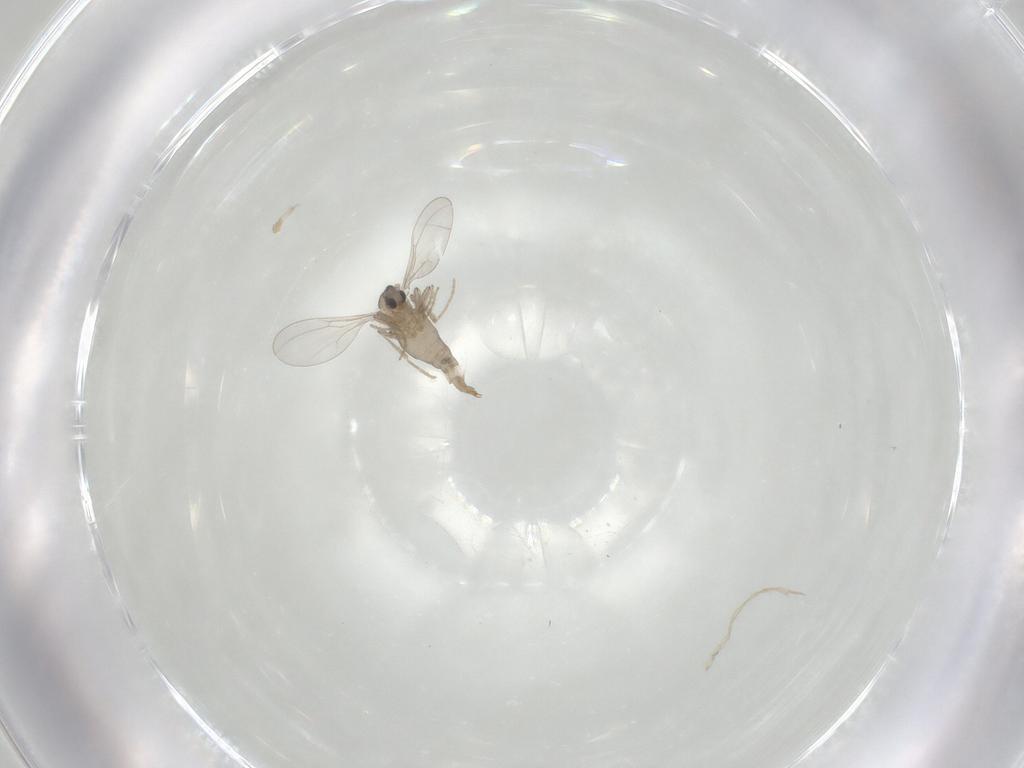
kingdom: Animalia
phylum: Arthropoda
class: Insecta
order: Diptera
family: Cecidomyiidae
